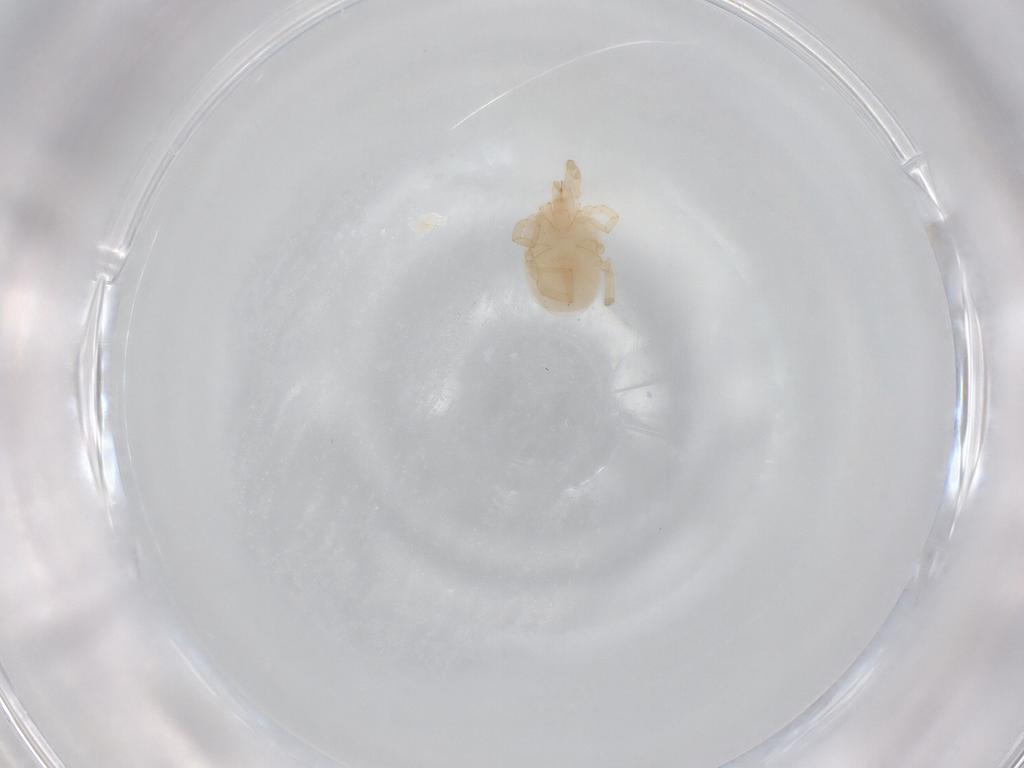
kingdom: Animalia
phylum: Arthropoda
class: Arachnida
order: Trombidiformes
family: Erythraeidae
